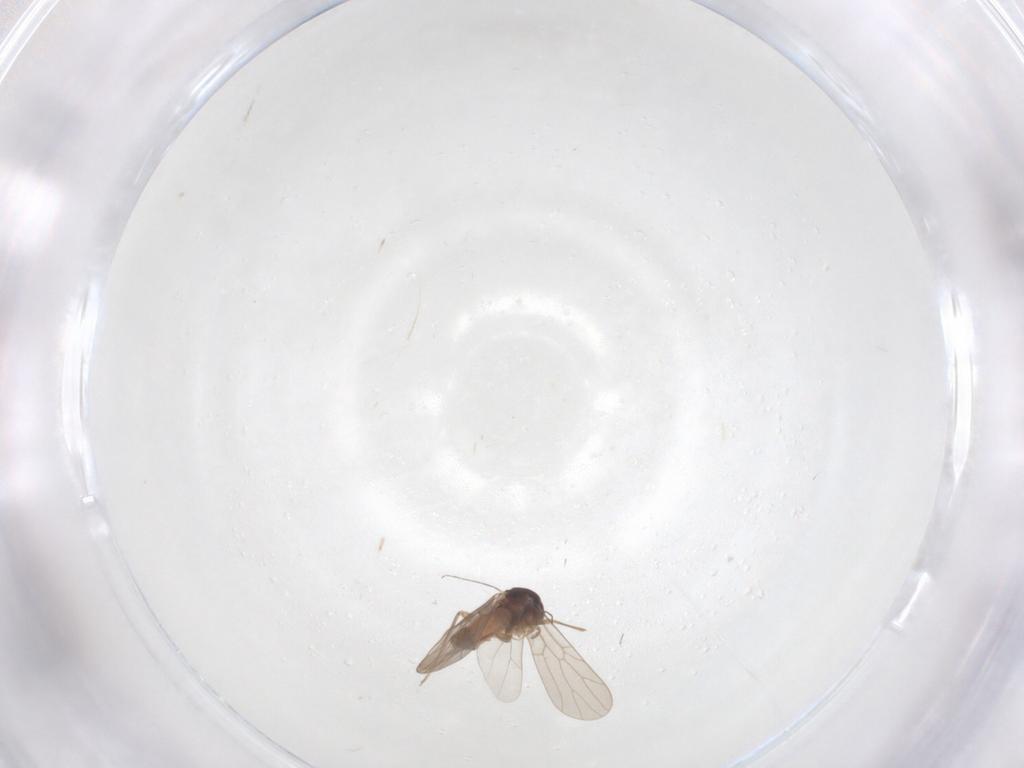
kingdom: Animalia
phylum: Arthropoda
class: Insecta
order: Psocodea
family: Lepidopsocidae
